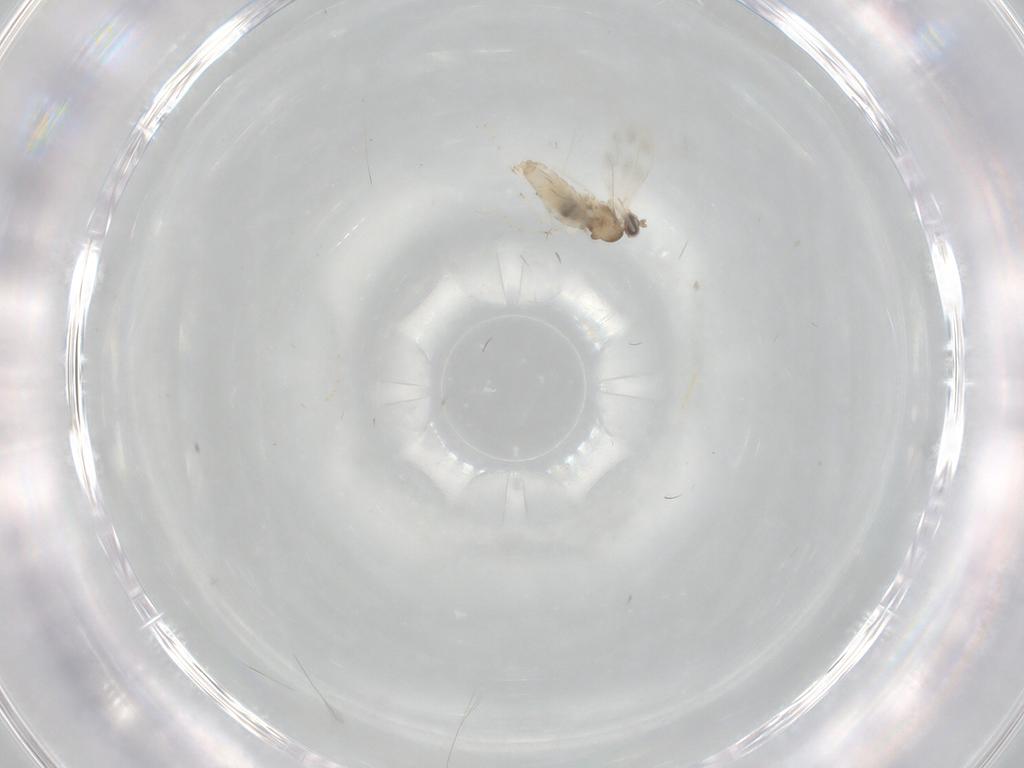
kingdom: Animalia
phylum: Arthropoda
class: Insecta
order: Diptera
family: Cecidomyiidae
